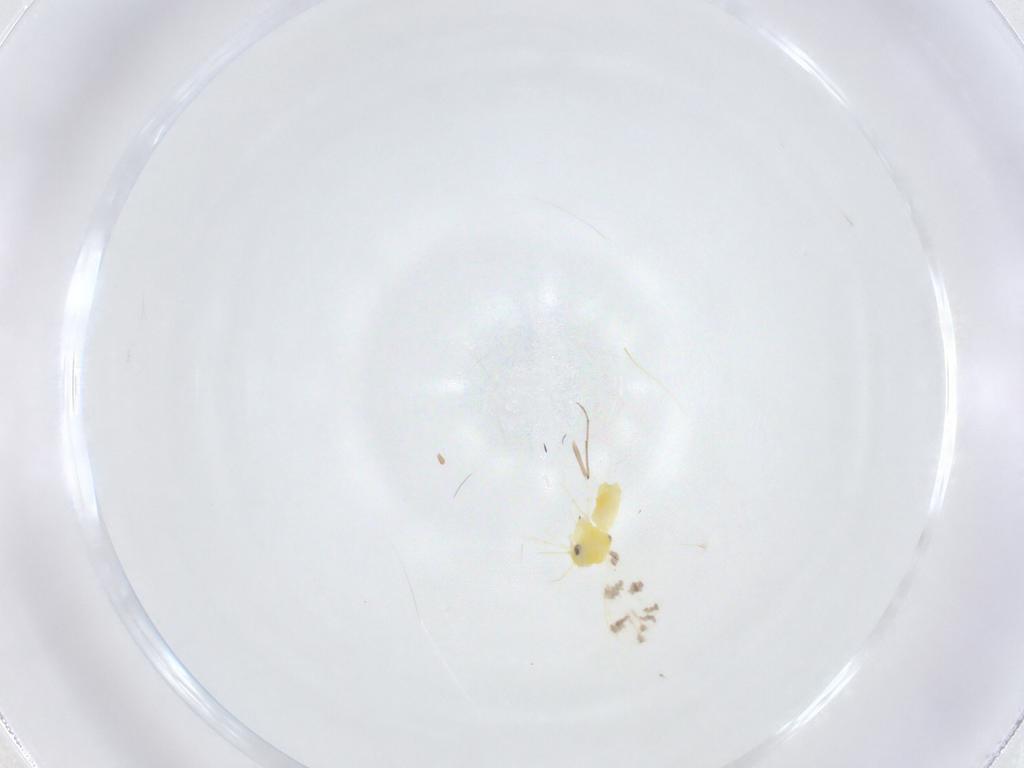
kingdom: Animalia
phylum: Arthropoda
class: Insecta
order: Hemiptera
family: Aleyrodidae
